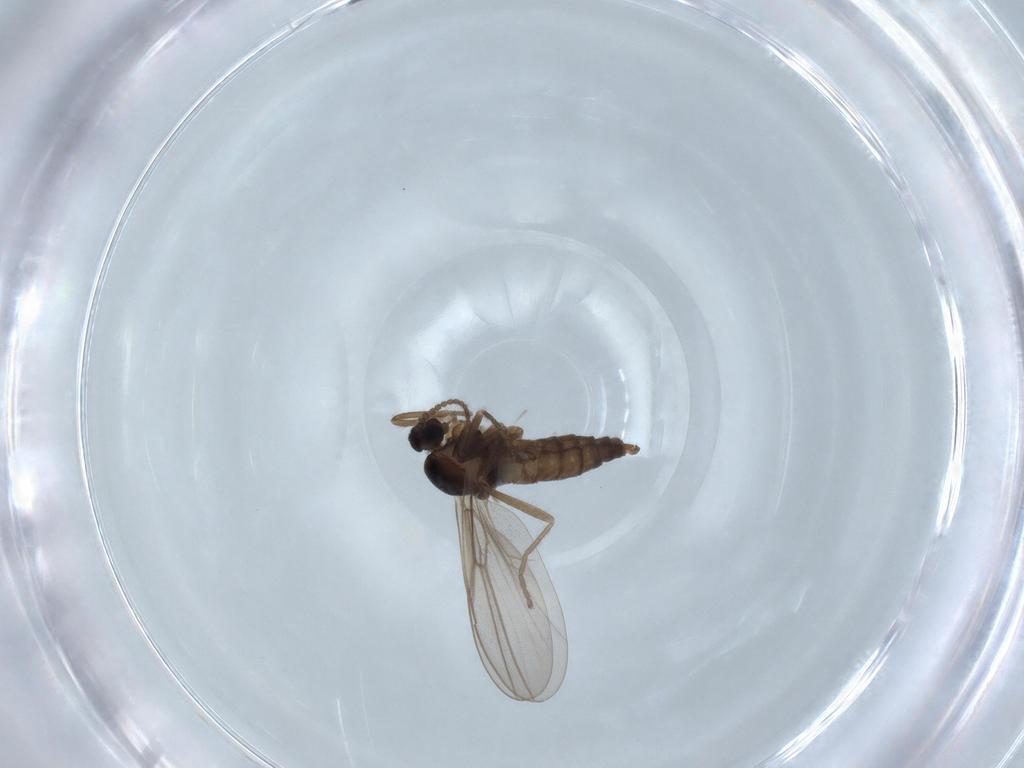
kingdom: Animalia
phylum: Arthropoda
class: Insecta
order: Diptera
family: Cecidomyiidae
